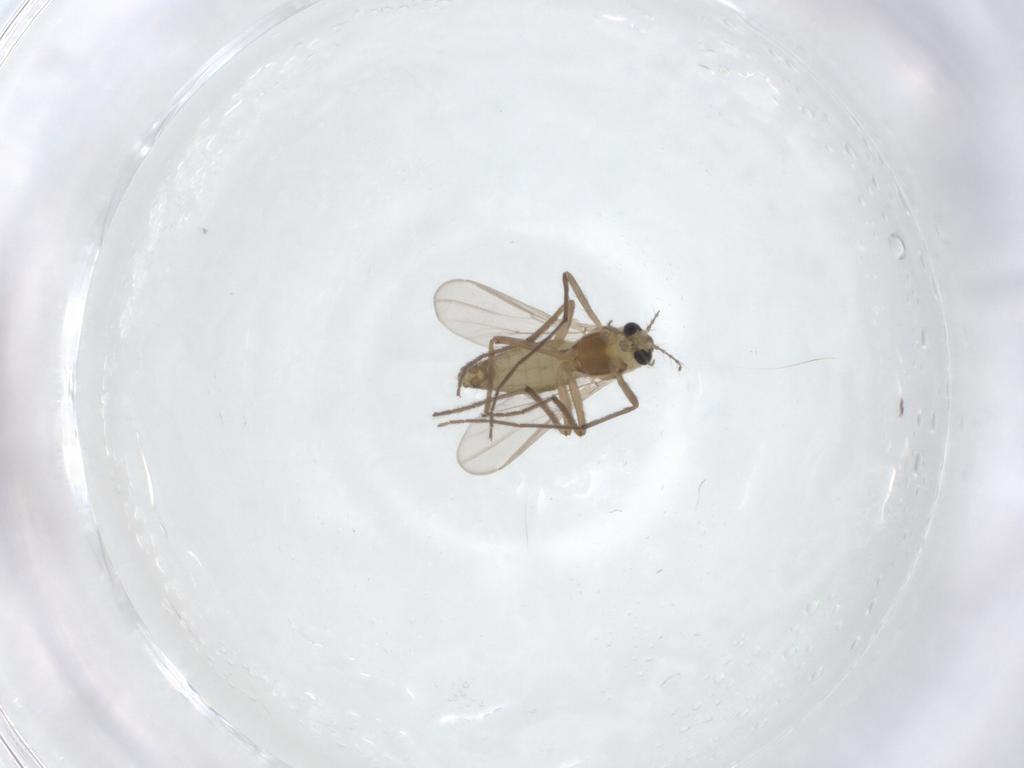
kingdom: Animalia
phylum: Arthropoda
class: Insecta
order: Diptera
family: Chironomidae
